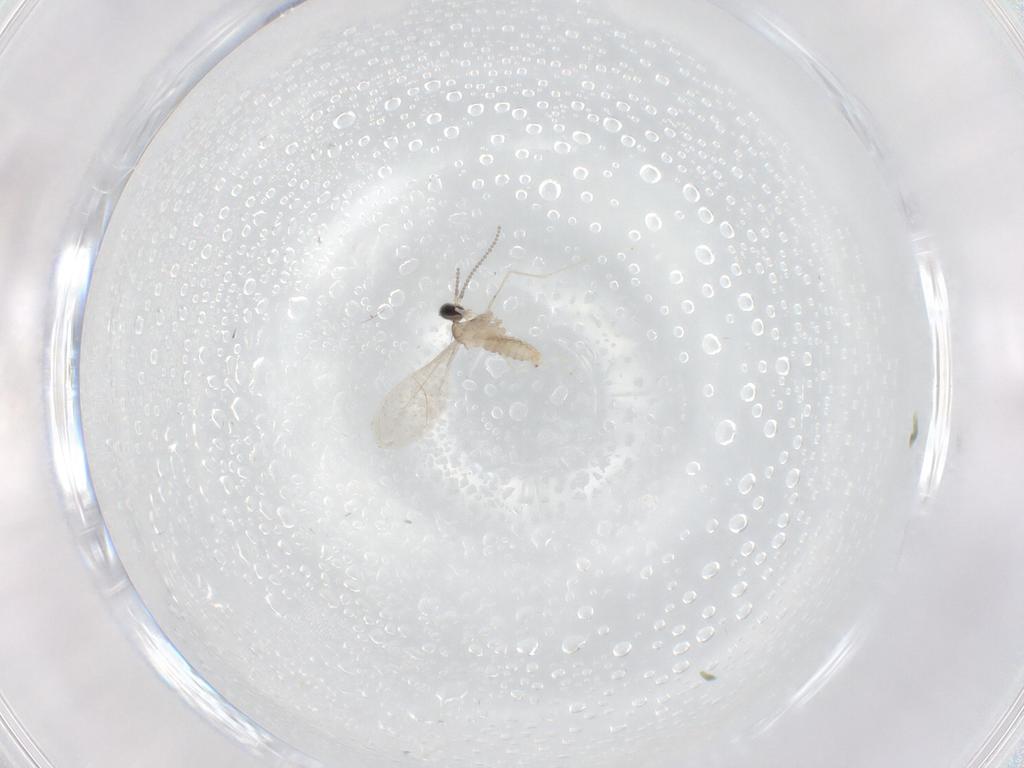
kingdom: Animalia
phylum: Arthropoda
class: Insecta
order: Diptera
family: Cecidomyiidae
